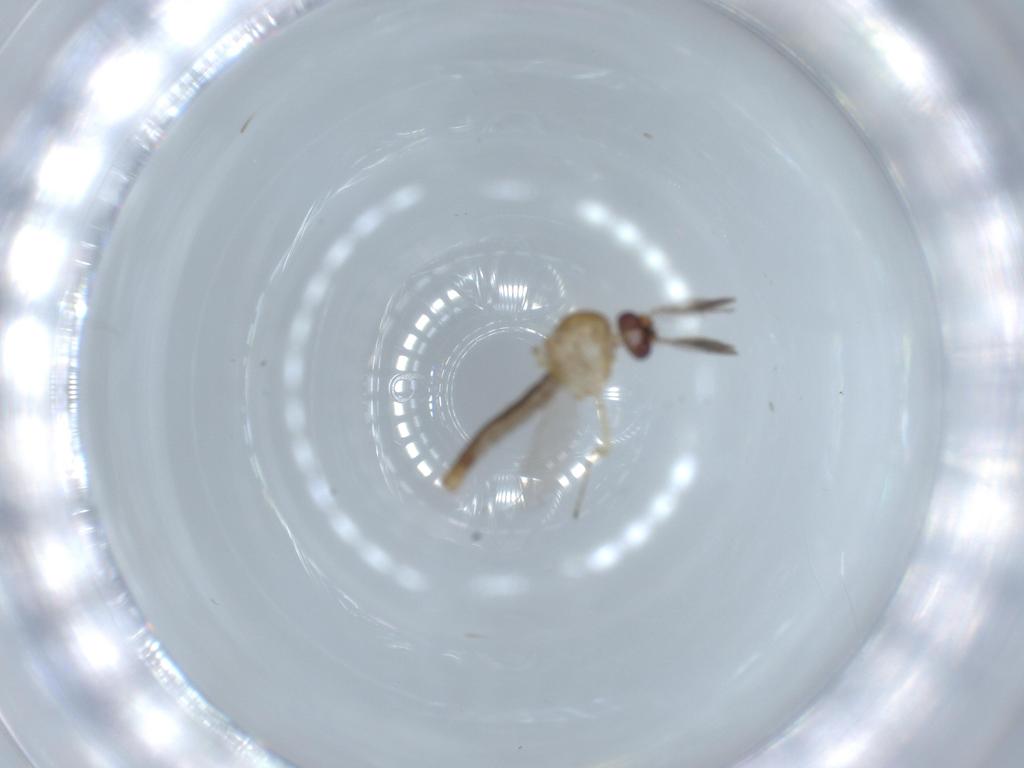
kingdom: Animalia
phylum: Arthropoda
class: Insecta
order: Diptera
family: Ceratopogonidae
